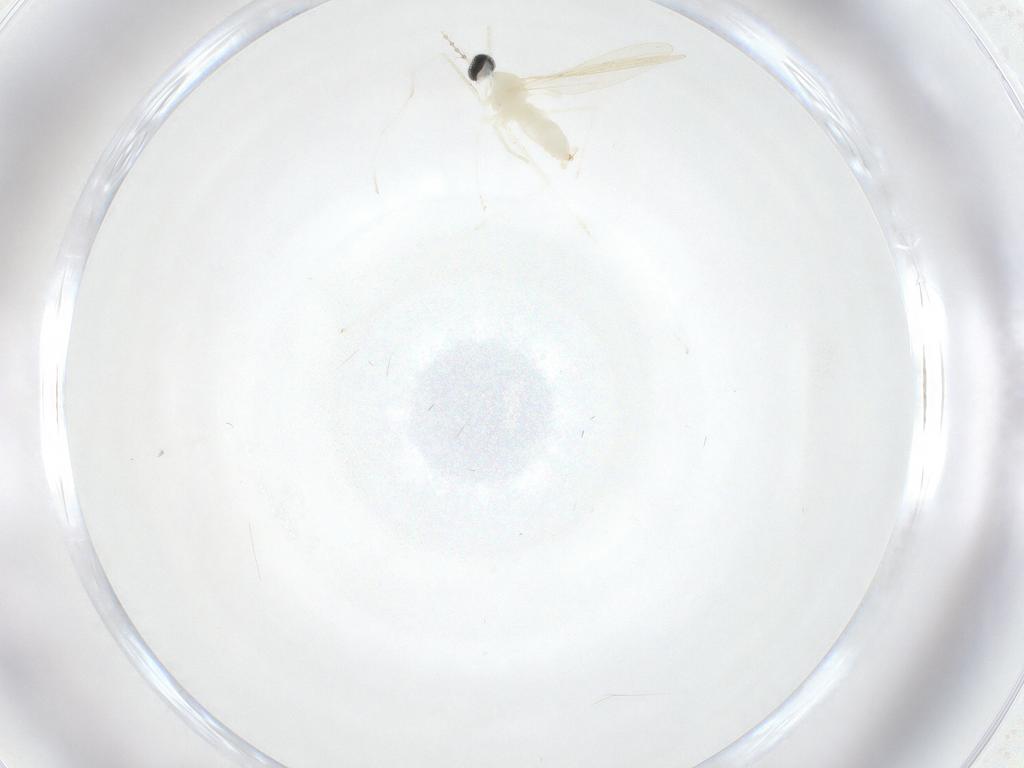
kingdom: Animalia
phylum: Arthropoda
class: Insecta
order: Diptera
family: Cecidomyiidae
